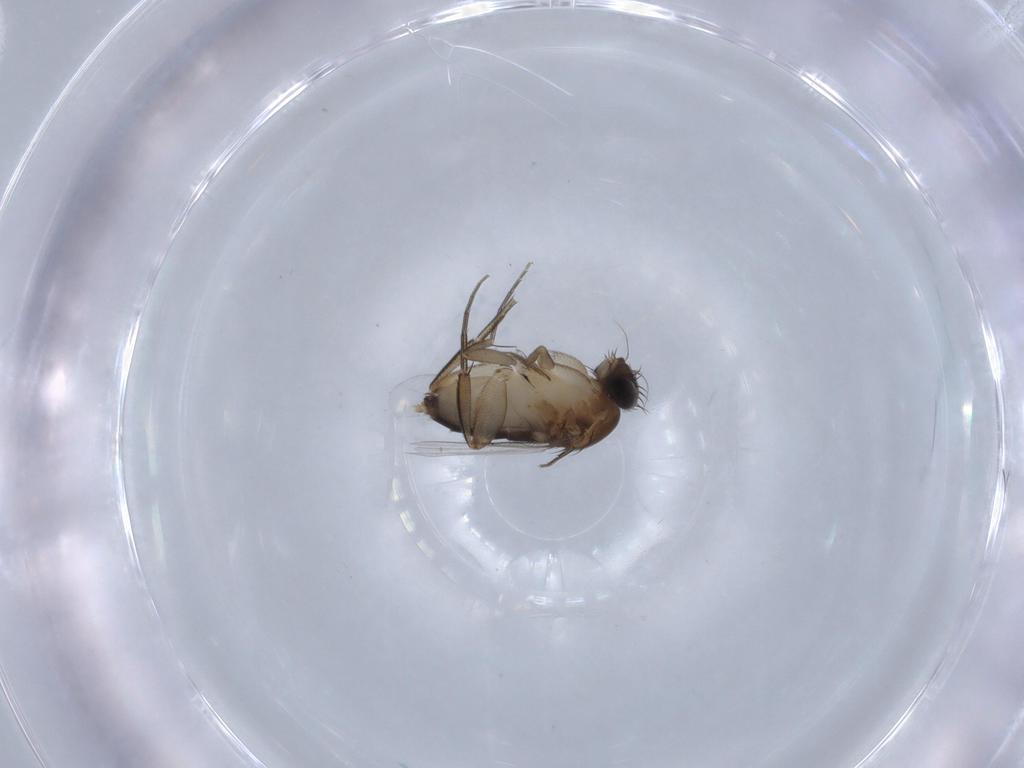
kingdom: Animalia
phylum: Arthropoda
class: Insecta
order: Diptera
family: Phoridae
